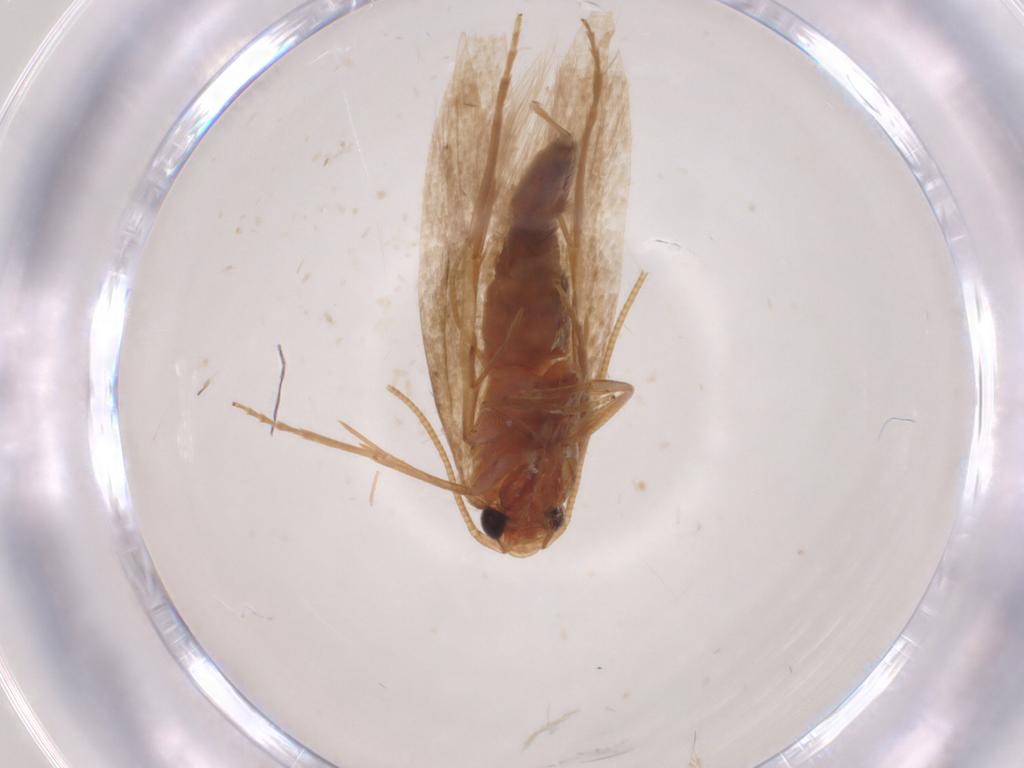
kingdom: Animalia
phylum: Arthropoda
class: Insecta
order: Lepidoptera
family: Tineidae
